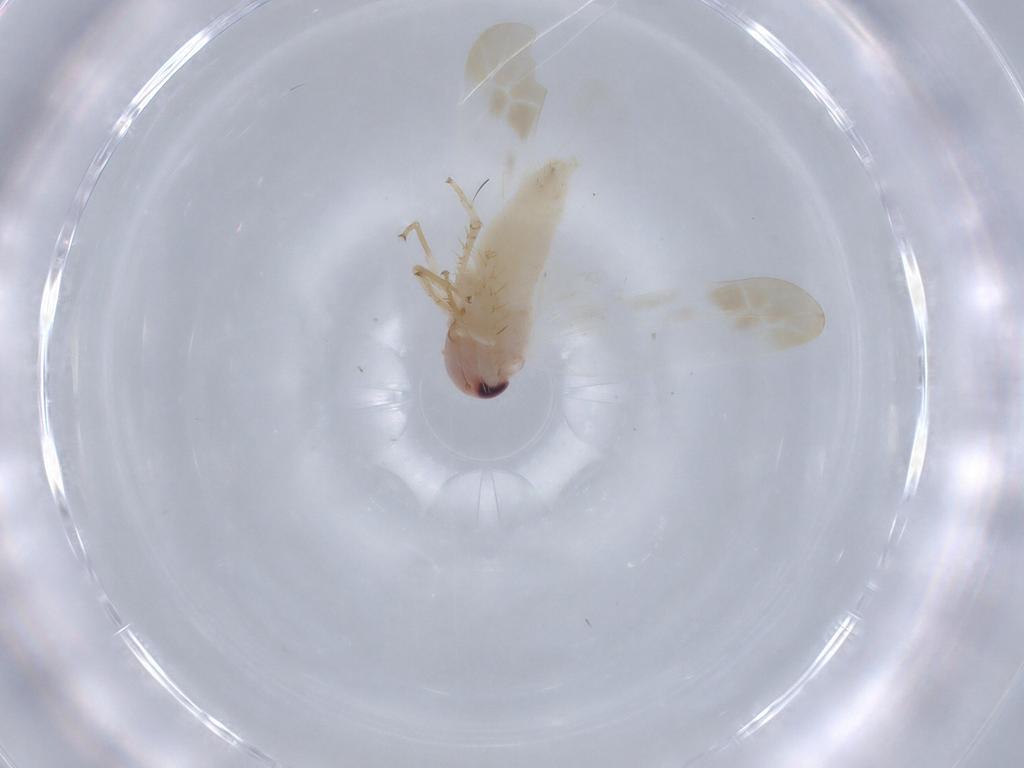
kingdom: Animalia
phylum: Arthropoda
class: Insecta
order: Hemiptera
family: Cicadellidae
